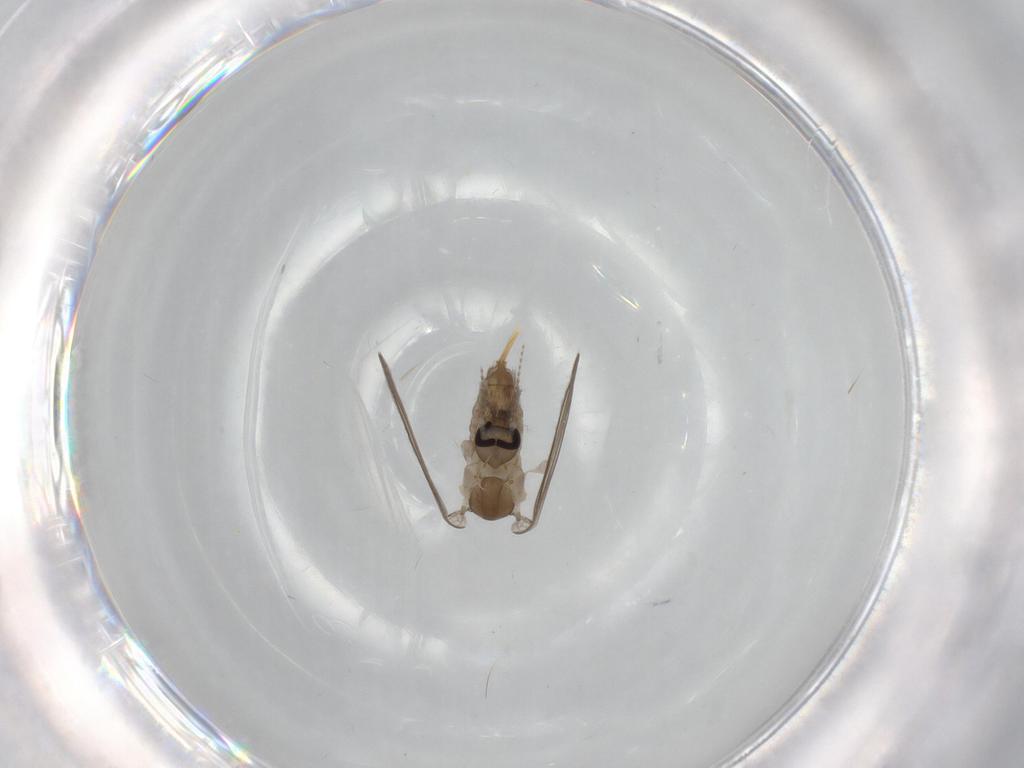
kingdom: Animalia
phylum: Arthropoda
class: Insecta
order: Diptera
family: Psychodidae
